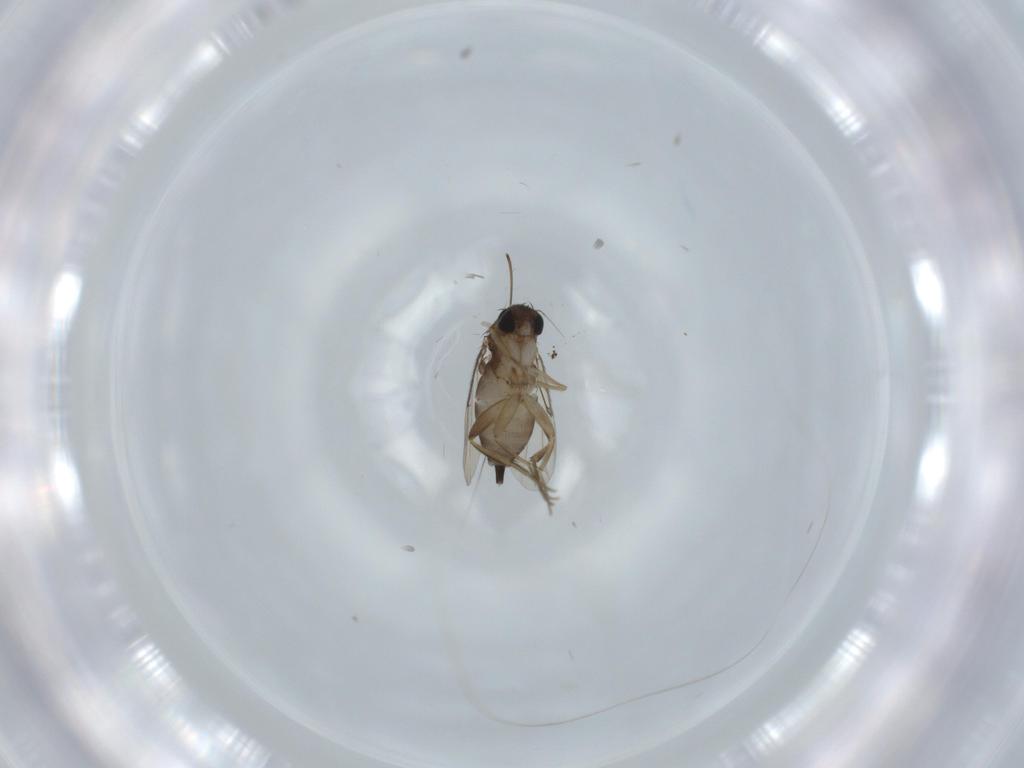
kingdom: Animalia
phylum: Arthropoda
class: Insecta
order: Diptera
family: Phoridae
